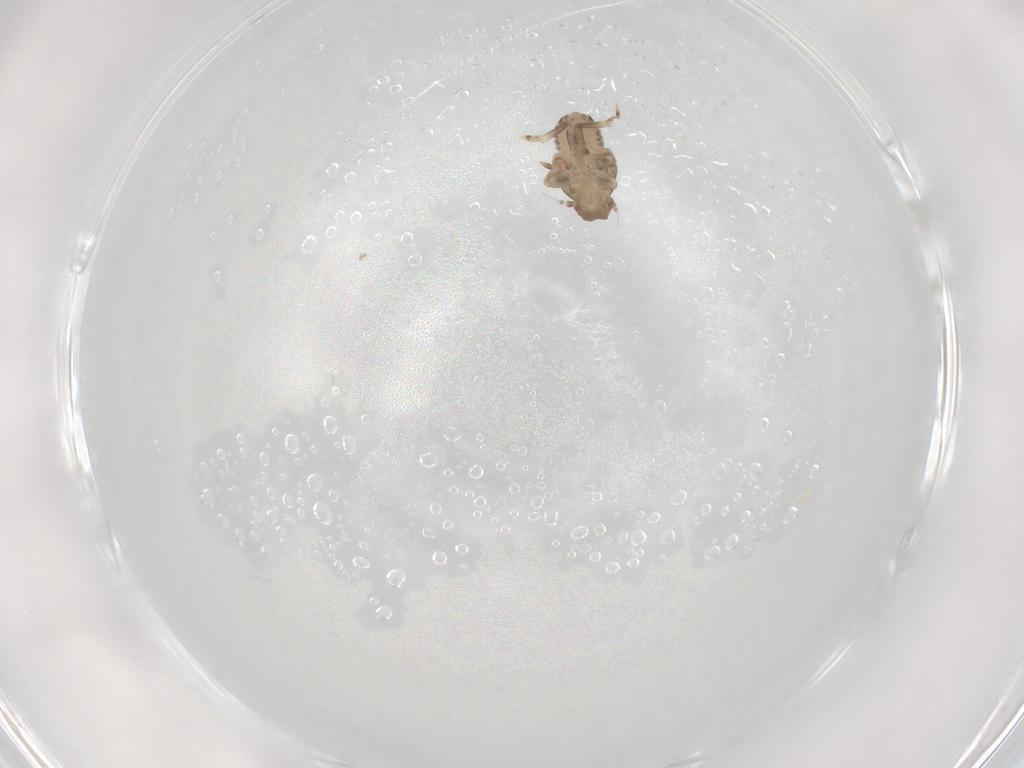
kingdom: Animalia
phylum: Arthropoda
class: Insecta
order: Hemiptera
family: Flatidae
